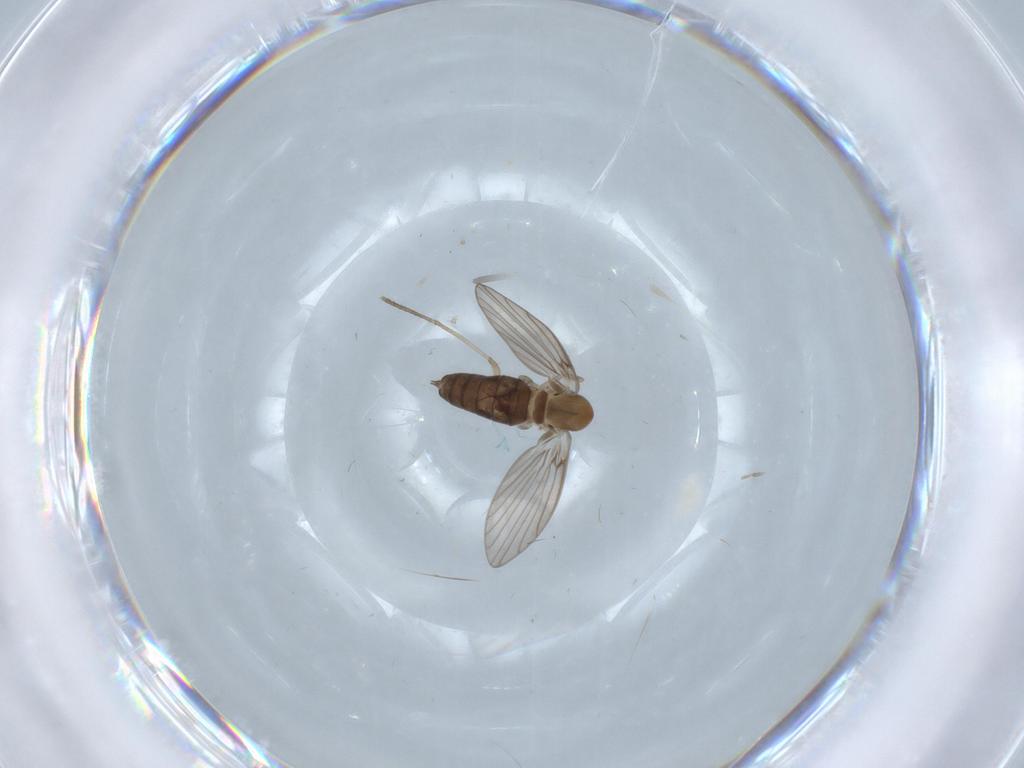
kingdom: Animalia
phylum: Arthropoda
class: Insecta
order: Diptera
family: Psychodidae
